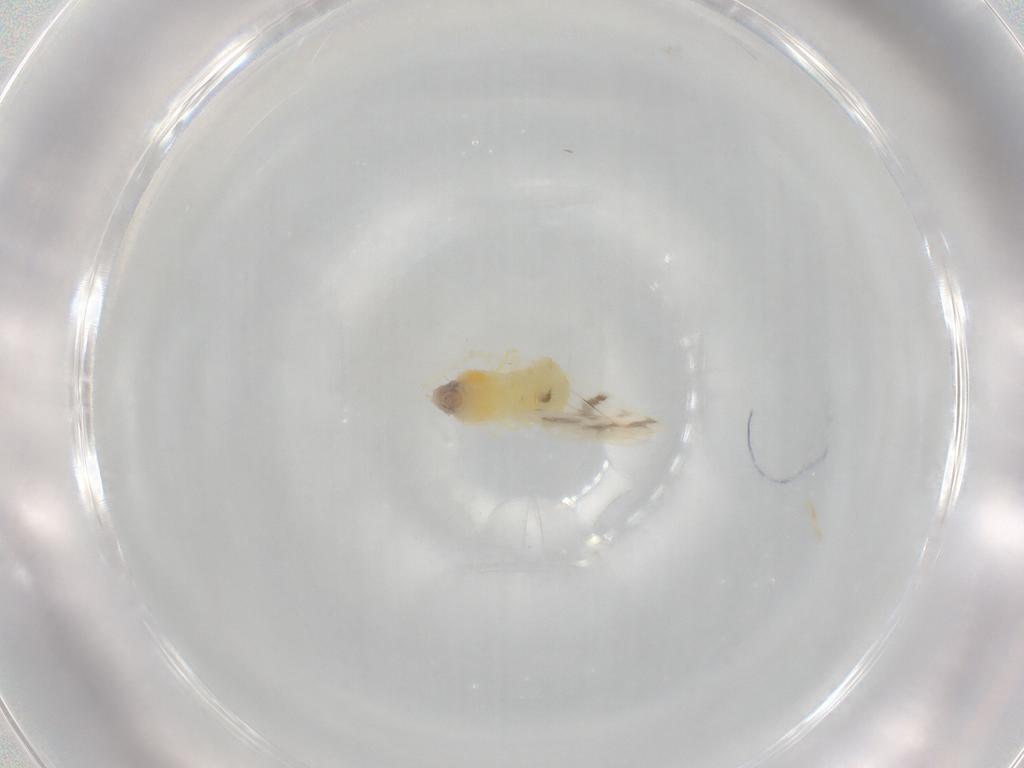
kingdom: Animalia
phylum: Arthropoda
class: Insecta
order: Hemiptera
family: Aleyrodidae
